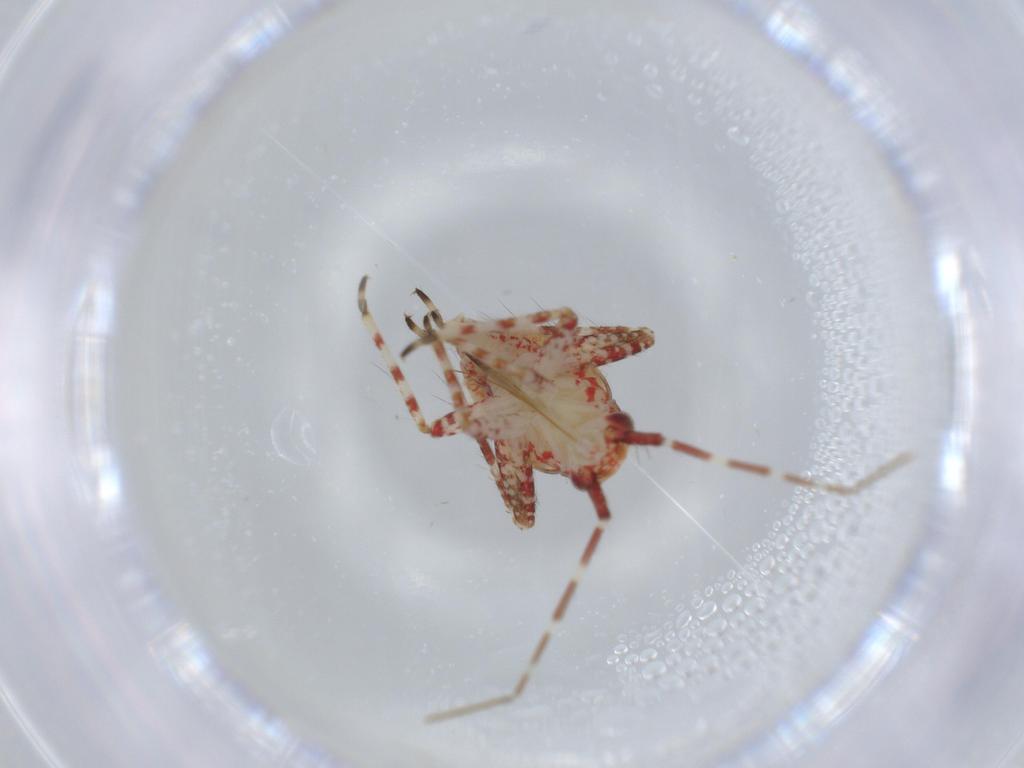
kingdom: Animalia
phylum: Arthropoda
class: Insecta
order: Hemiptera
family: Miridae
